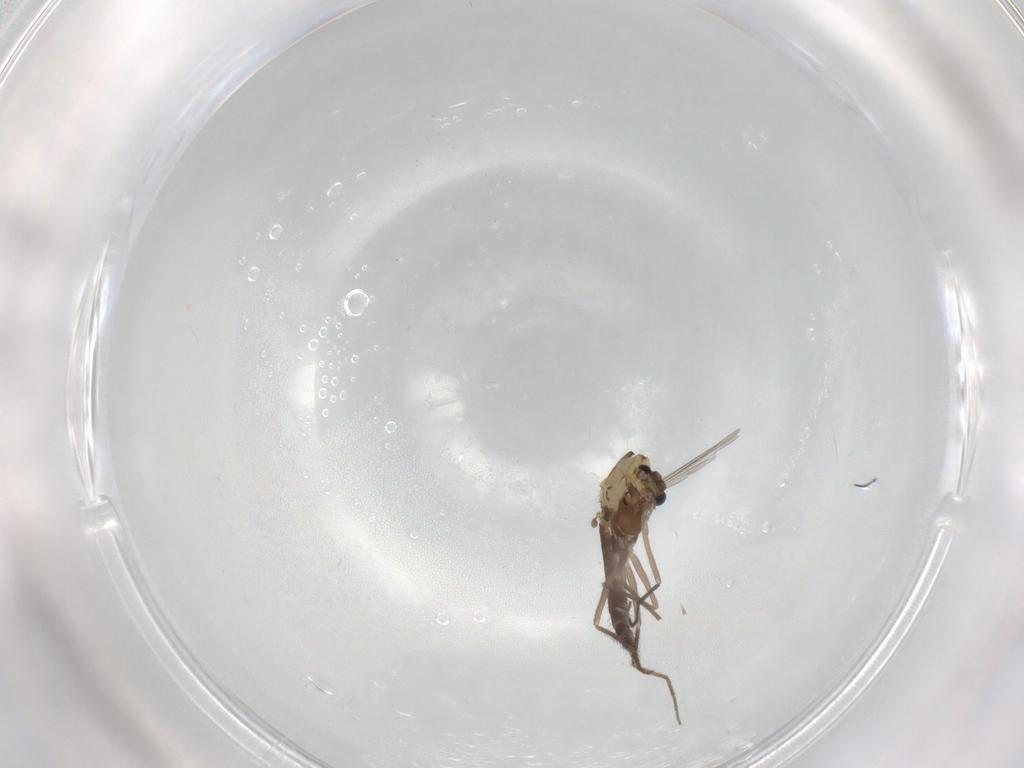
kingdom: Animalia
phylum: Arthropoda
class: Insecta
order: Diptera
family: Chironomidae
